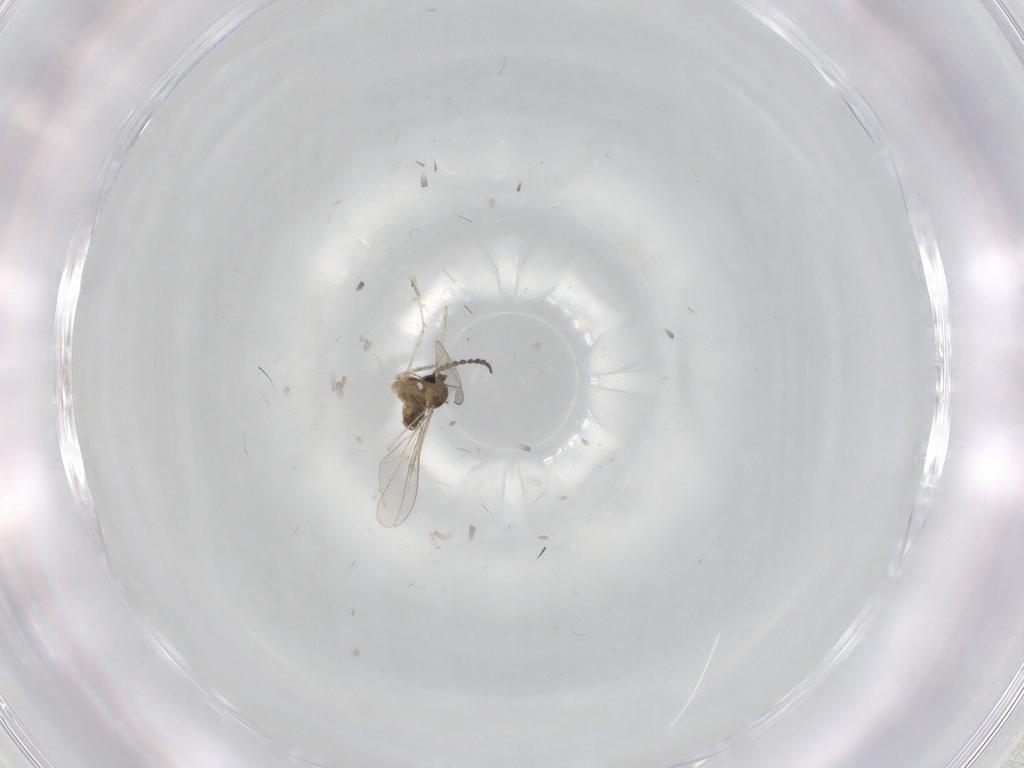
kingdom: Animalia
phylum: Arthropoda
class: Insecta
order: Diptera
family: Cecidomyiidae
